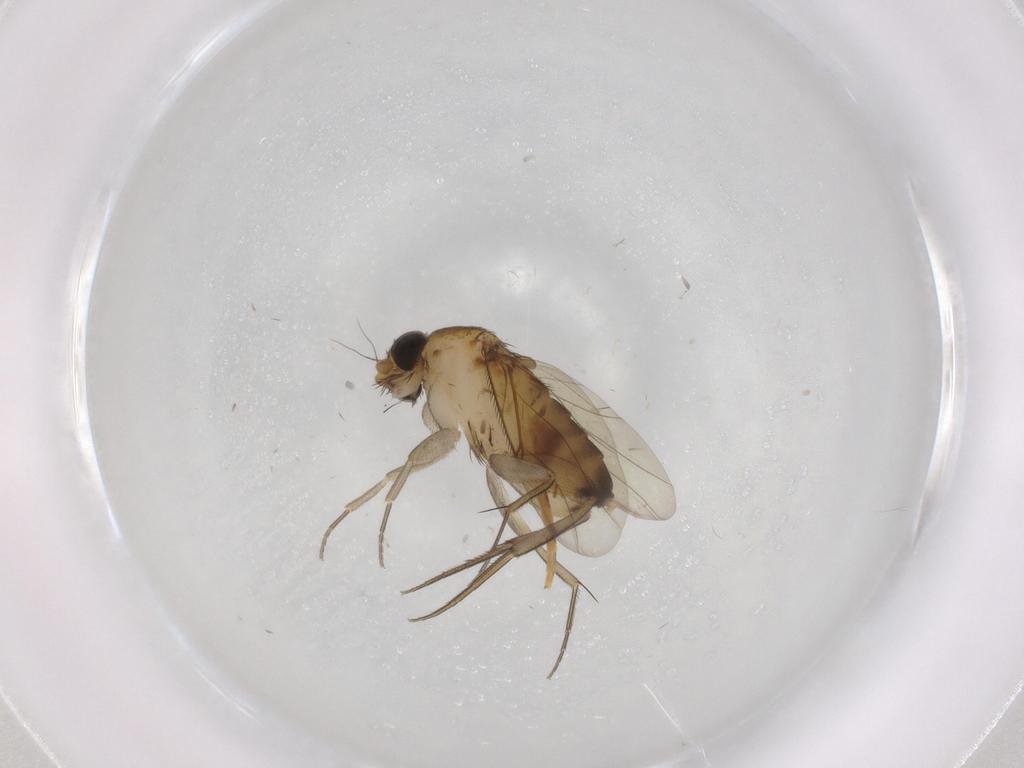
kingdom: Animalia
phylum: Arthropoda
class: Insecta
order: Diptera
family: Phoridae
